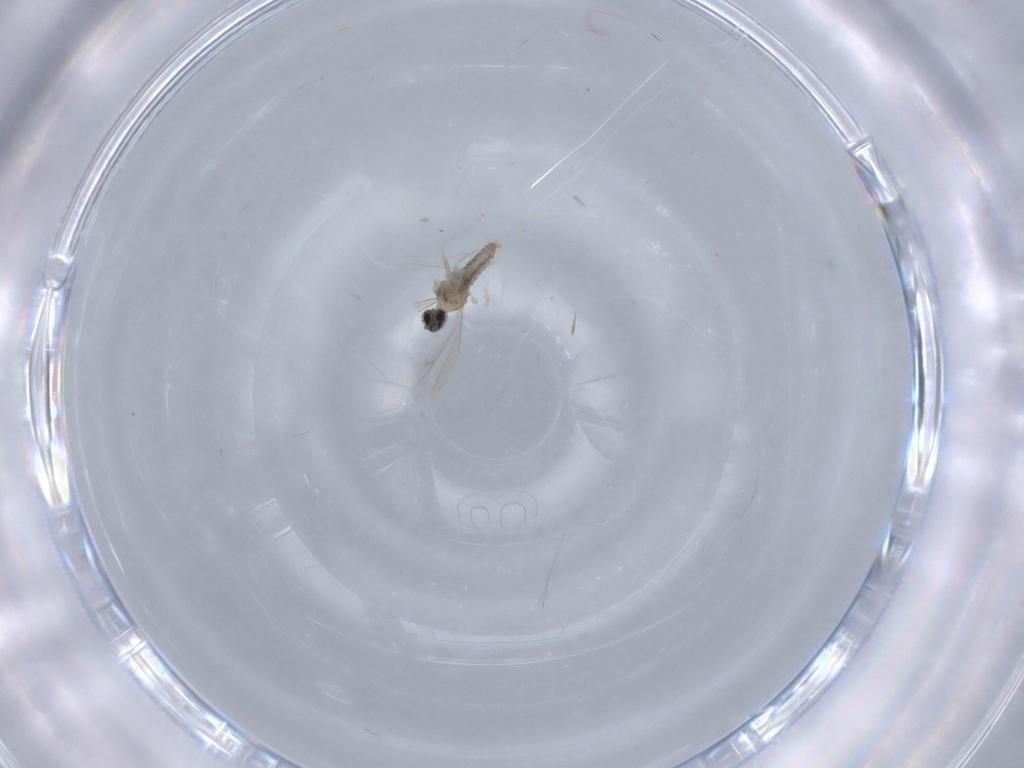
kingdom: Animalia
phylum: Arthropoda
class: Insecta
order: Diptera
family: Cecidomyiidae
